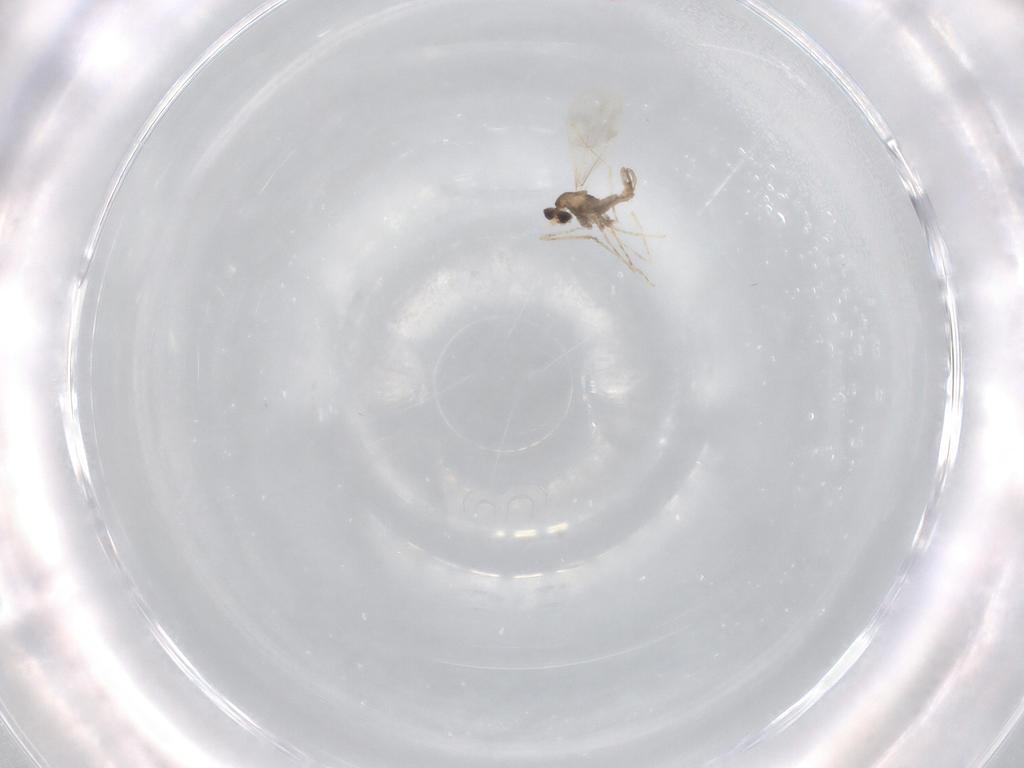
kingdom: Animalia
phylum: Arthropoda
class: Insecta
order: Diptera
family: Cecidomyiidae
